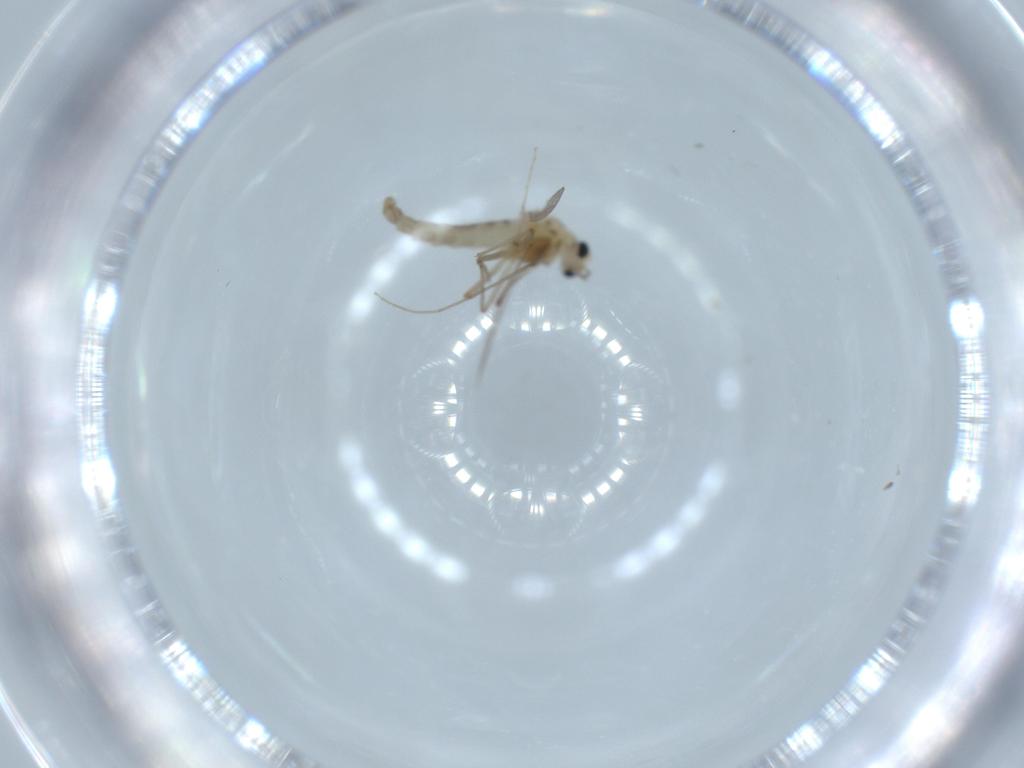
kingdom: Animalia
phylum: Arthropoda
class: Insecta
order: Diptera
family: Chironomidae
